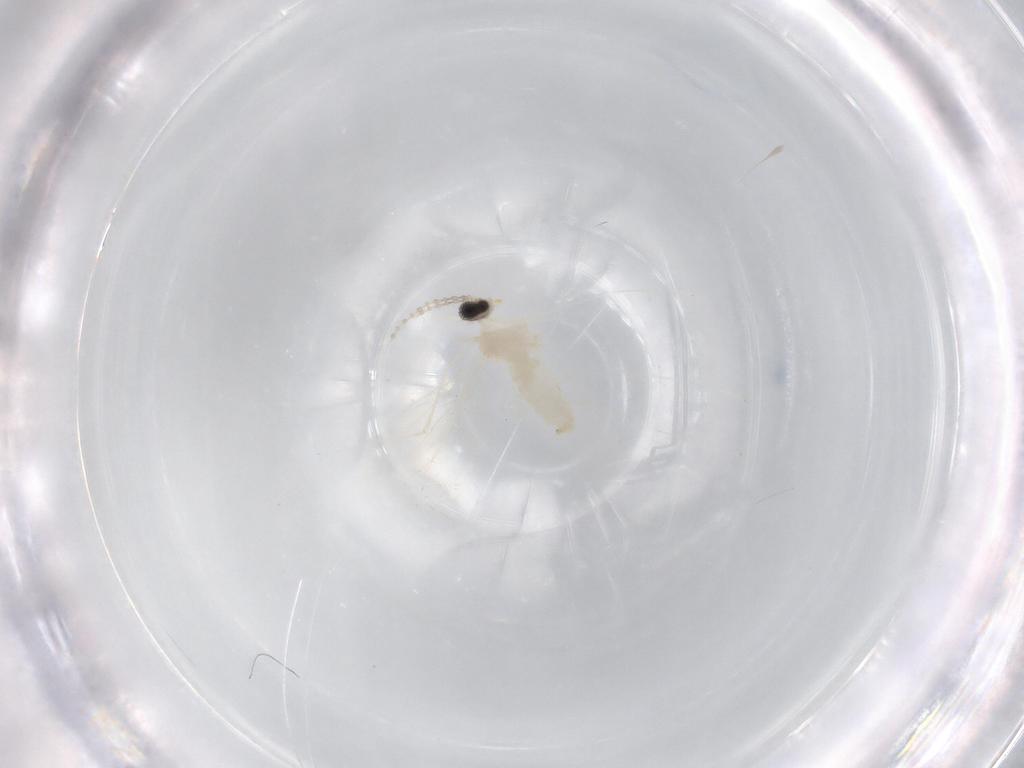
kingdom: Animalia
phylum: Arthropoda
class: Insecta
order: Diptera
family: Cecidomyiidae
